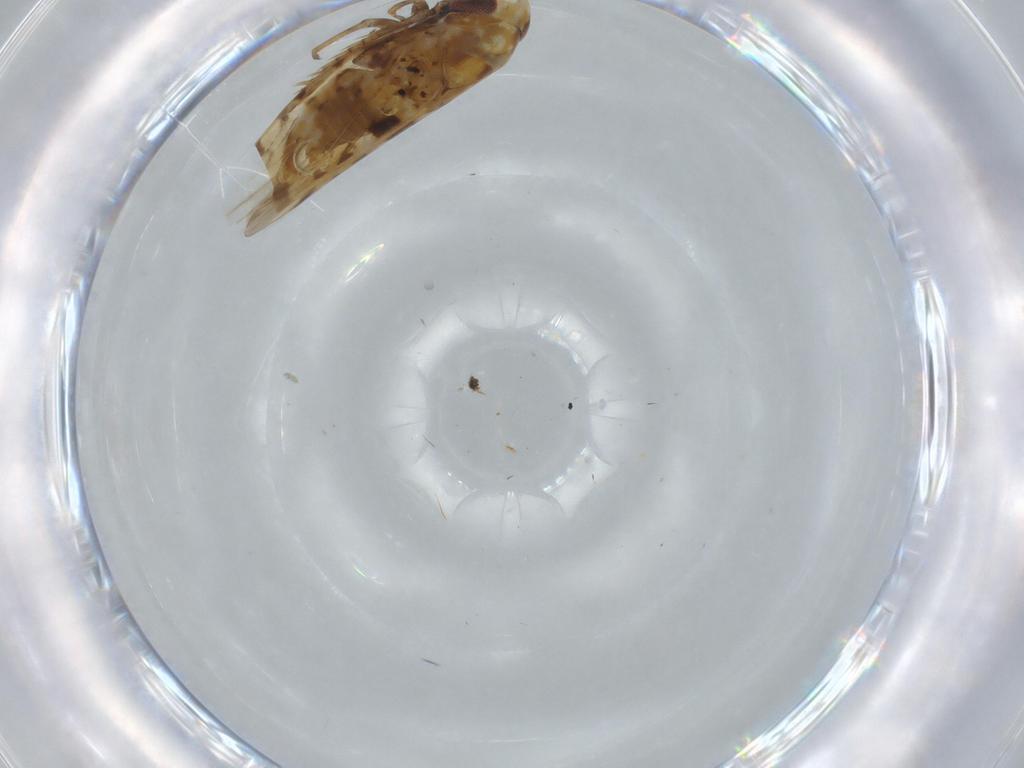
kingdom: Animalia
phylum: Arthropoda
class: Insecta
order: Hemiptera
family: Cicadellidae
